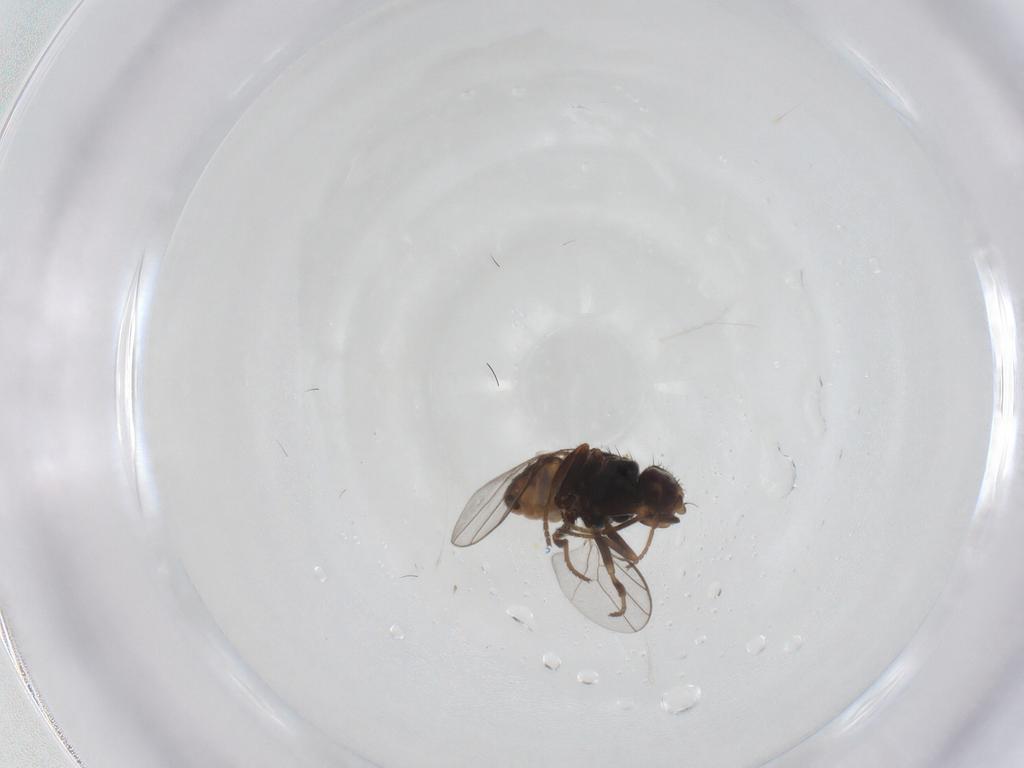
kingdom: Animalia
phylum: Arthropoda
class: Insecta
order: Diptera
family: Chloropidae
